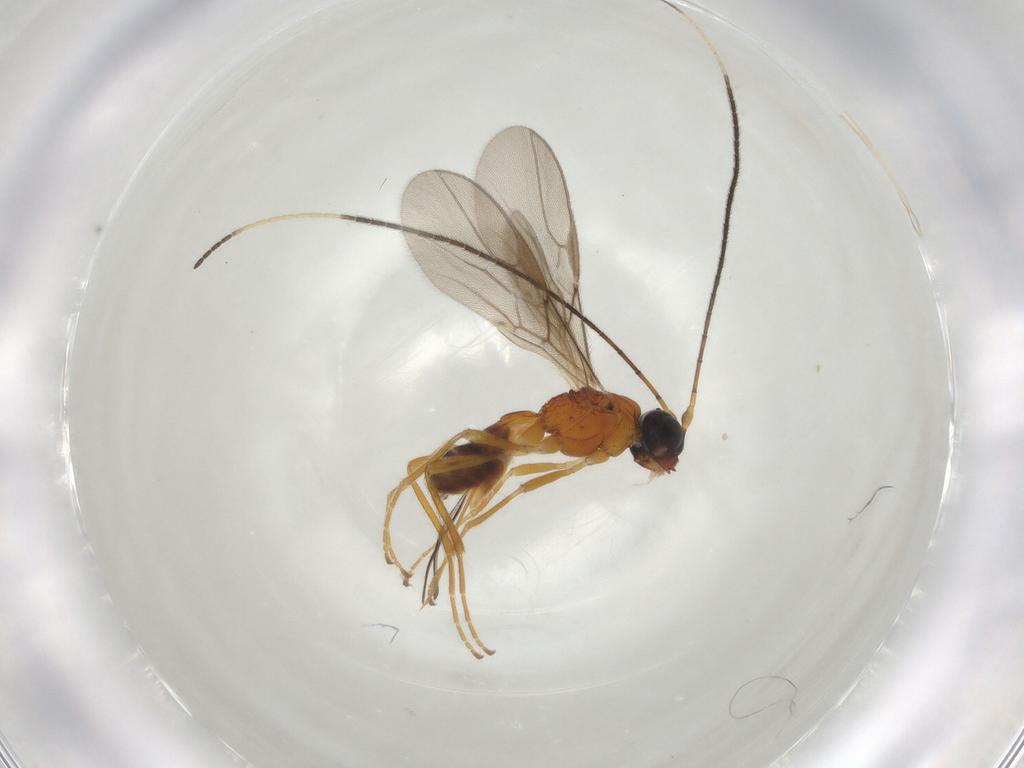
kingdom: Animalia
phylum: Arthropoda
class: Insecta
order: Hymenoptera
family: Braconidae
